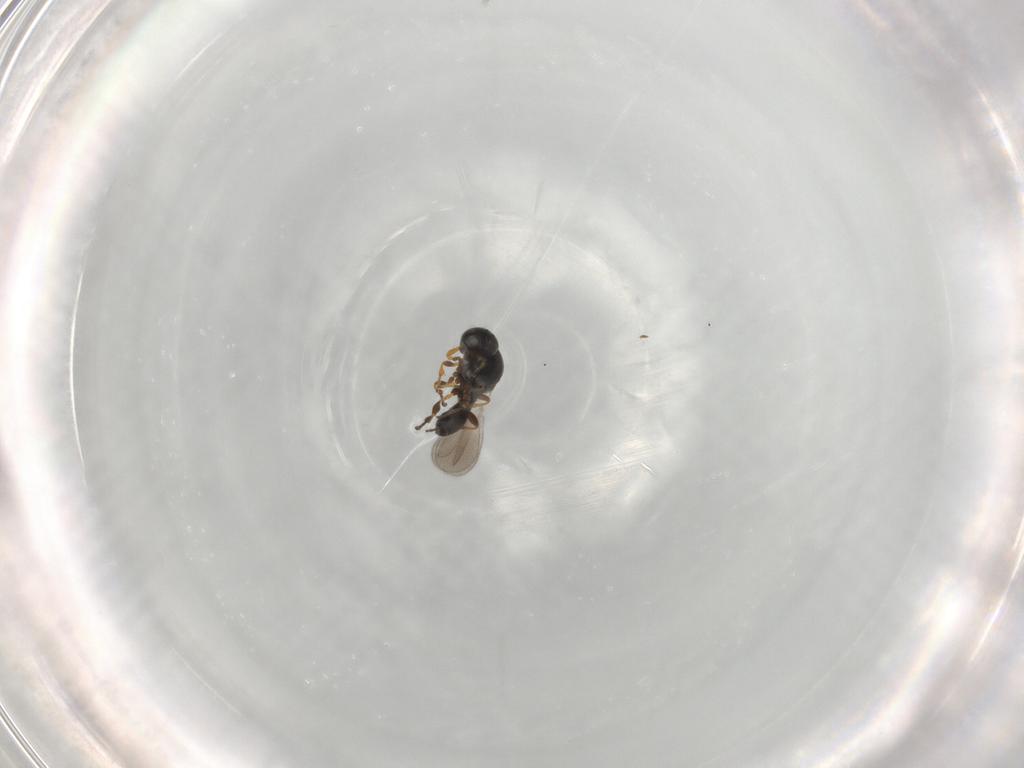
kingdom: Animalia
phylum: Arthropoda
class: Insecta
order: Hymenoptera
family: Platygastridae
